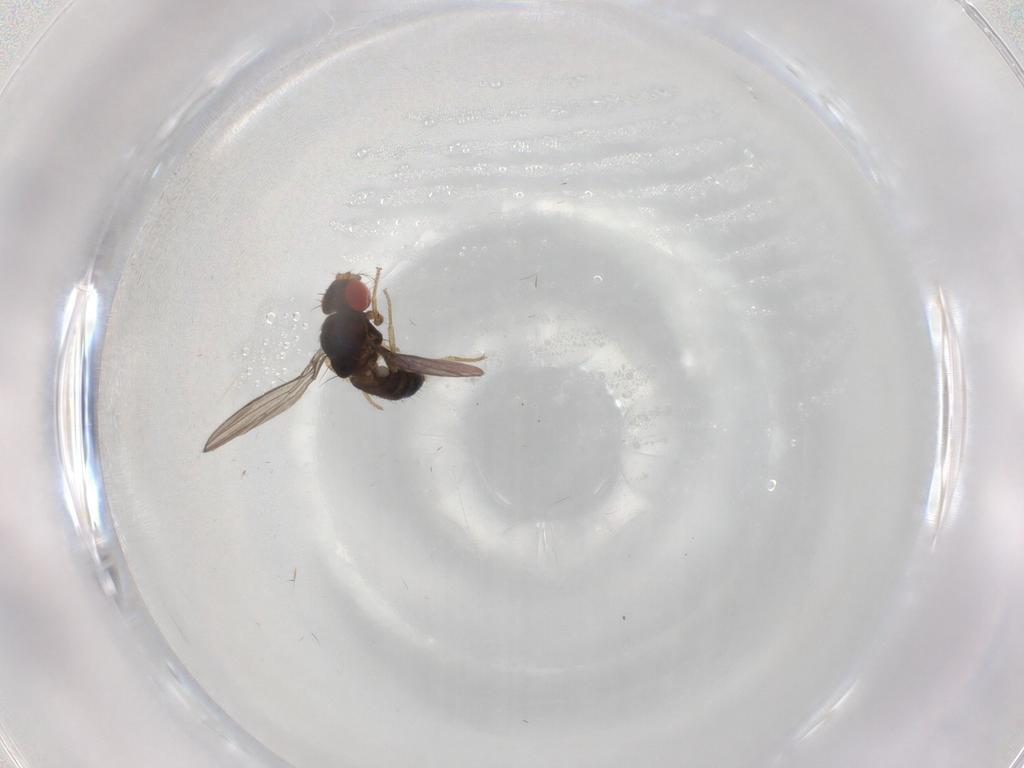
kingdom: Animalia
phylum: Arthropoda
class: Insecta
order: Diptera
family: Drosophilidae
